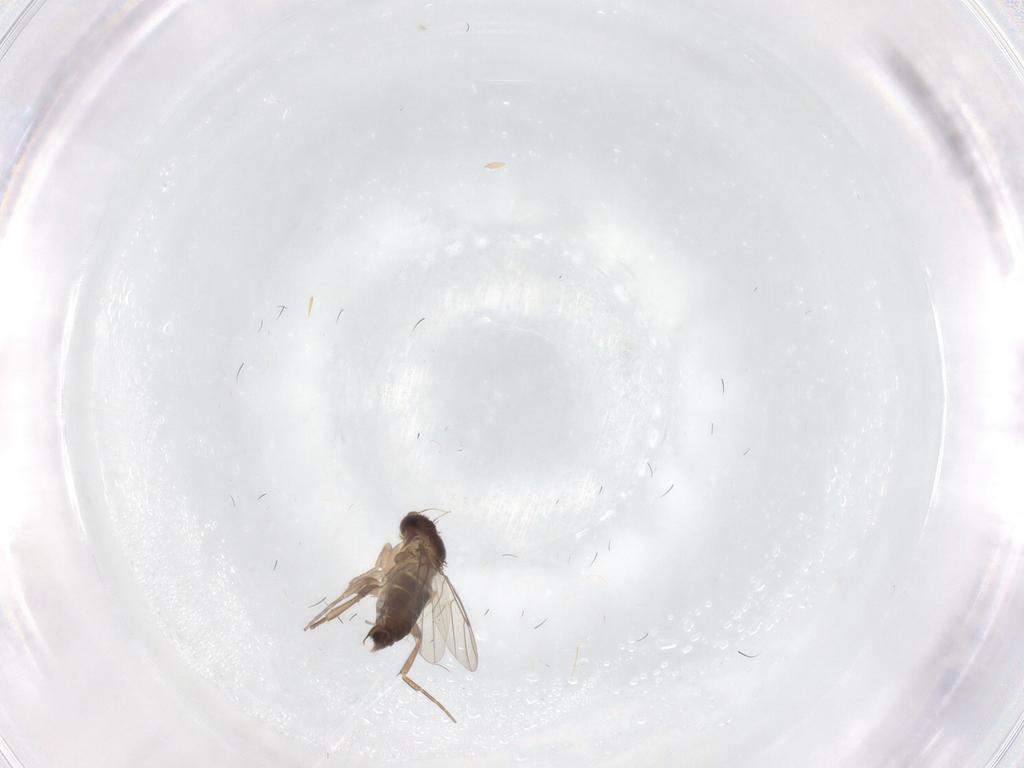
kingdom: Animalia
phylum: Arthropoda
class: Insecta
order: Diptera
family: Phoridae
